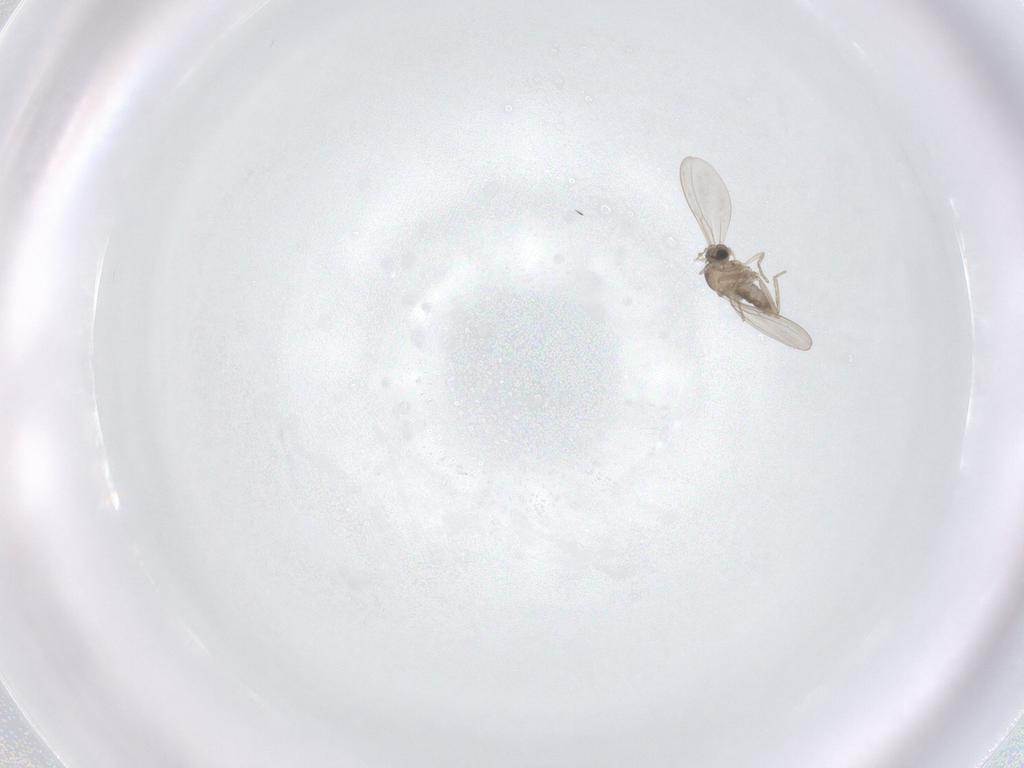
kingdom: Animalia
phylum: Arthropoda
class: Insecta
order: Diptera
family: Cecidomyiidae
